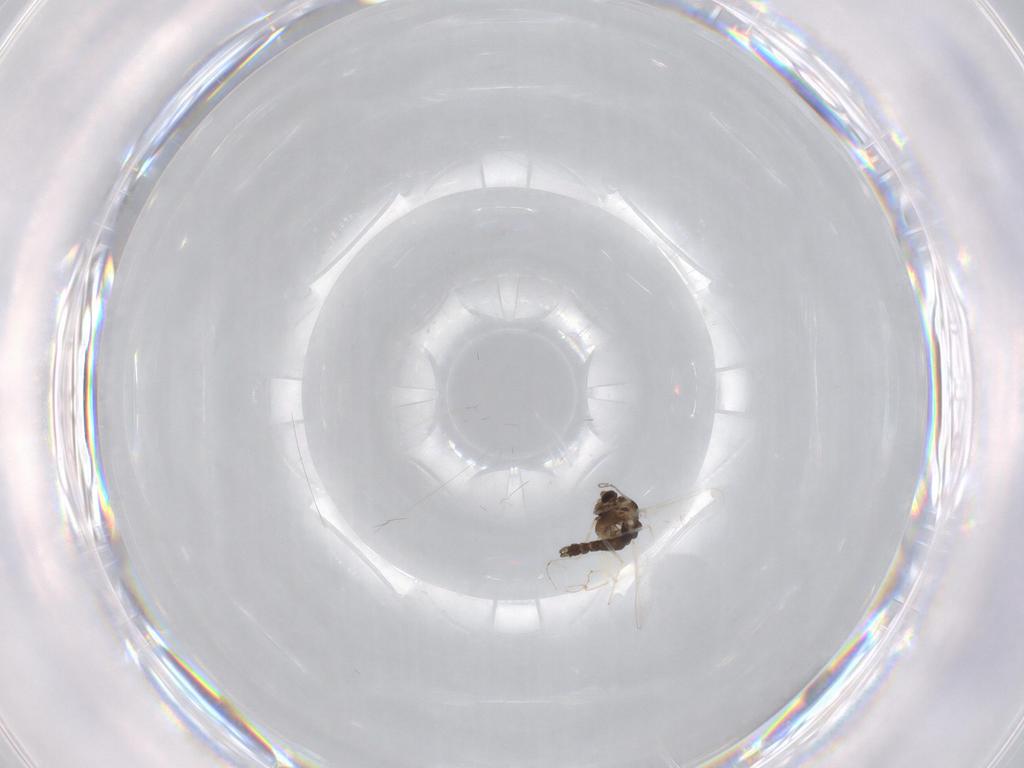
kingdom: Animalia
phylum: Arthropoda
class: Insecta
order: Diptera
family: Chironomidae
